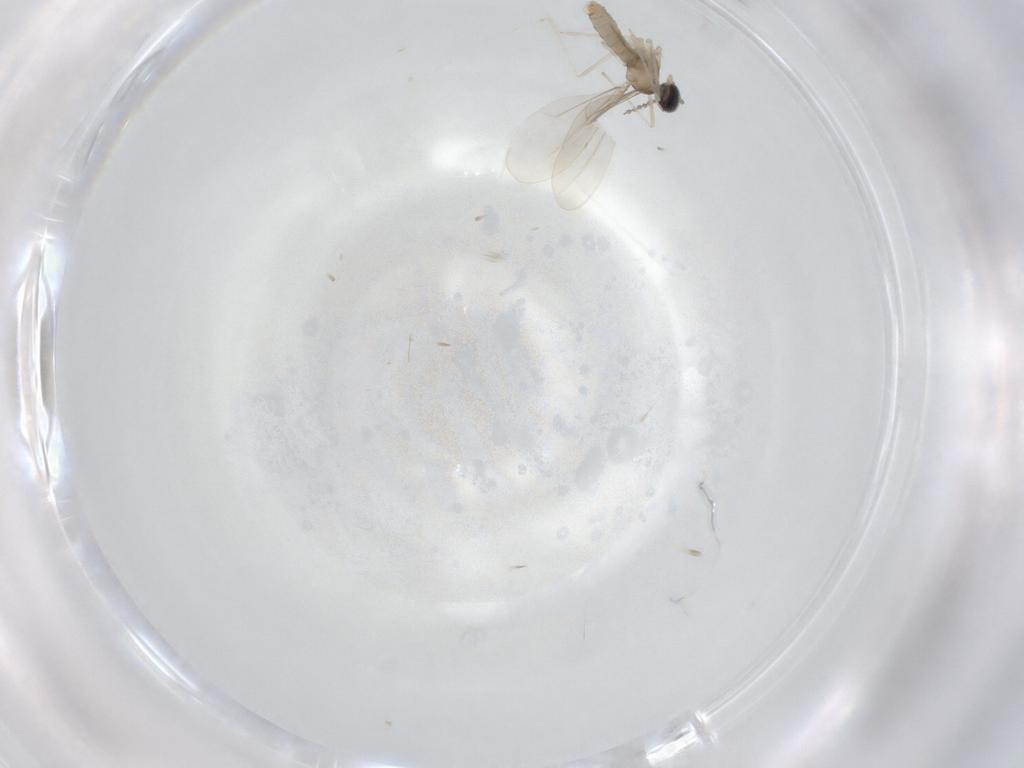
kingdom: Animalia
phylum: Arthropoda
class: Insecta
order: Diptera
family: Cecidomyiidae
